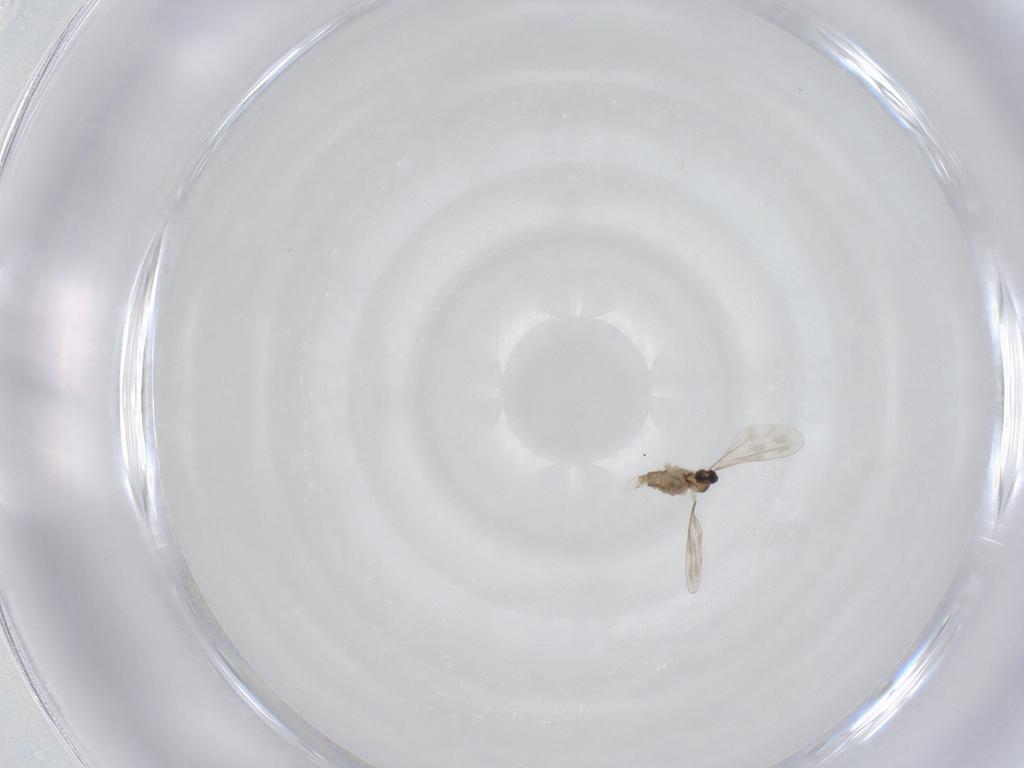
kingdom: Animalia
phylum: Arthropoda
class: Insecta
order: Diptera
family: Cecidomyiidae
